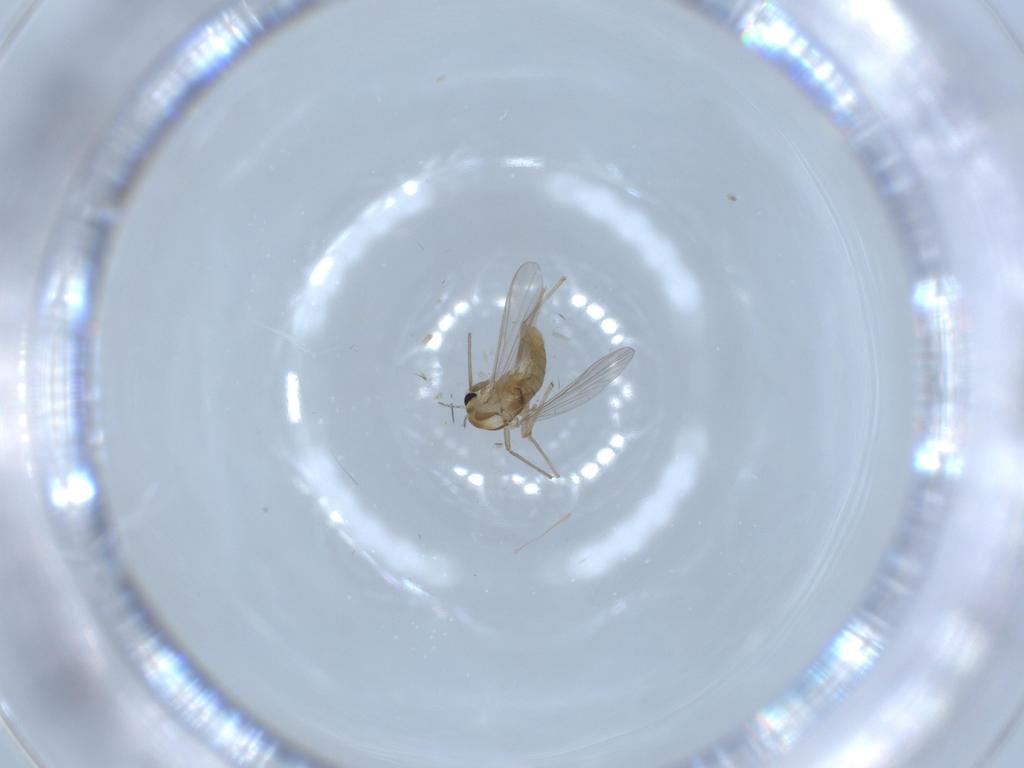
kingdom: Animalia
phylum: Arthropoda
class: Insecta
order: Diptera
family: Chironomidae
